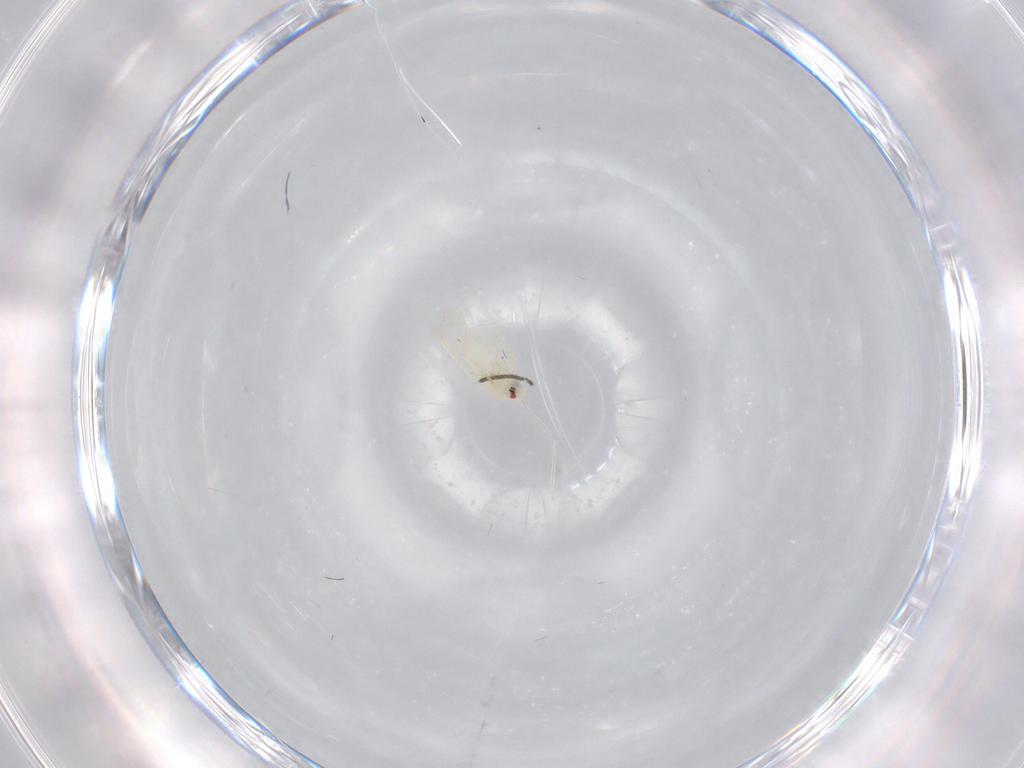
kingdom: Animalia
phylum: Arthropoda
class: Insecta
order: Hemiptera
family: Aleyrodidae
